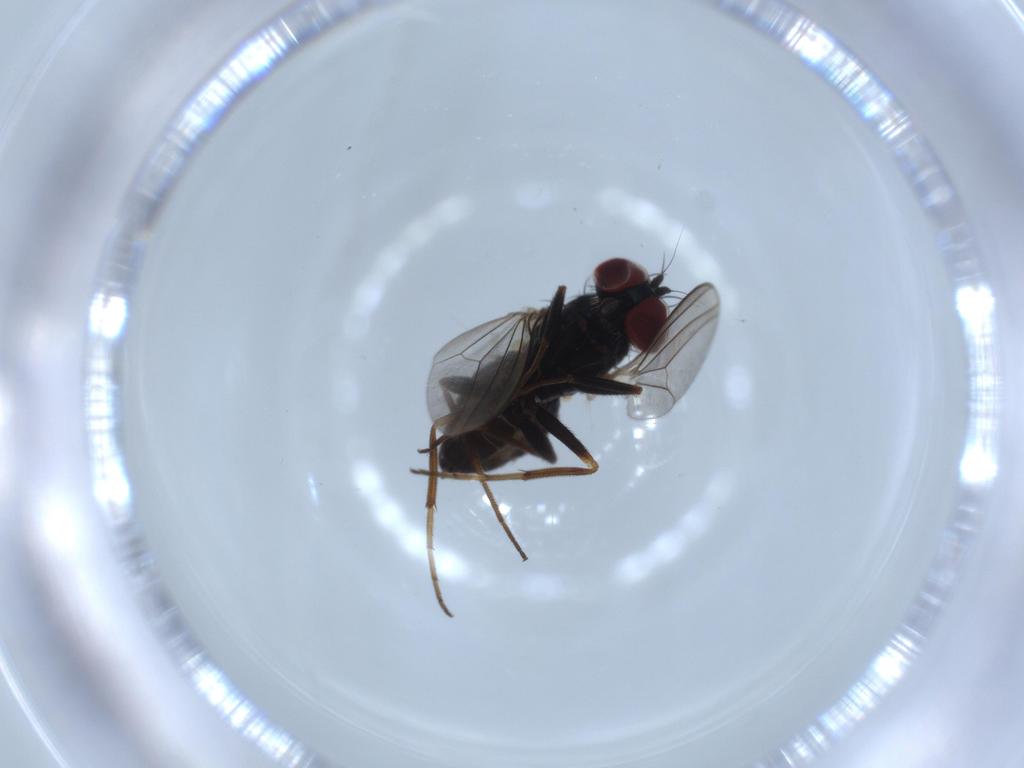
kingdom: Animalia
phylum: Arthropoda
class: Insecta
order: Diptera
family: Dolichopodidae
